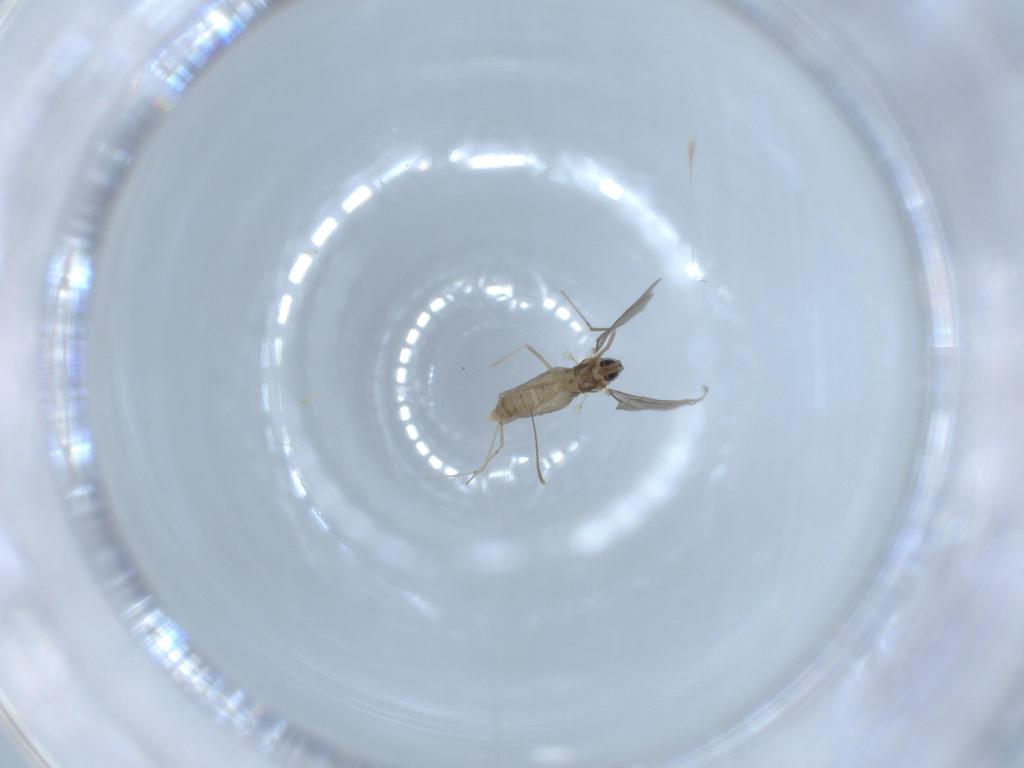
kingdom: Animalia
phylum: Arthropoda
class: Insecta
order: Diptera
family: Cecidomyiidae
